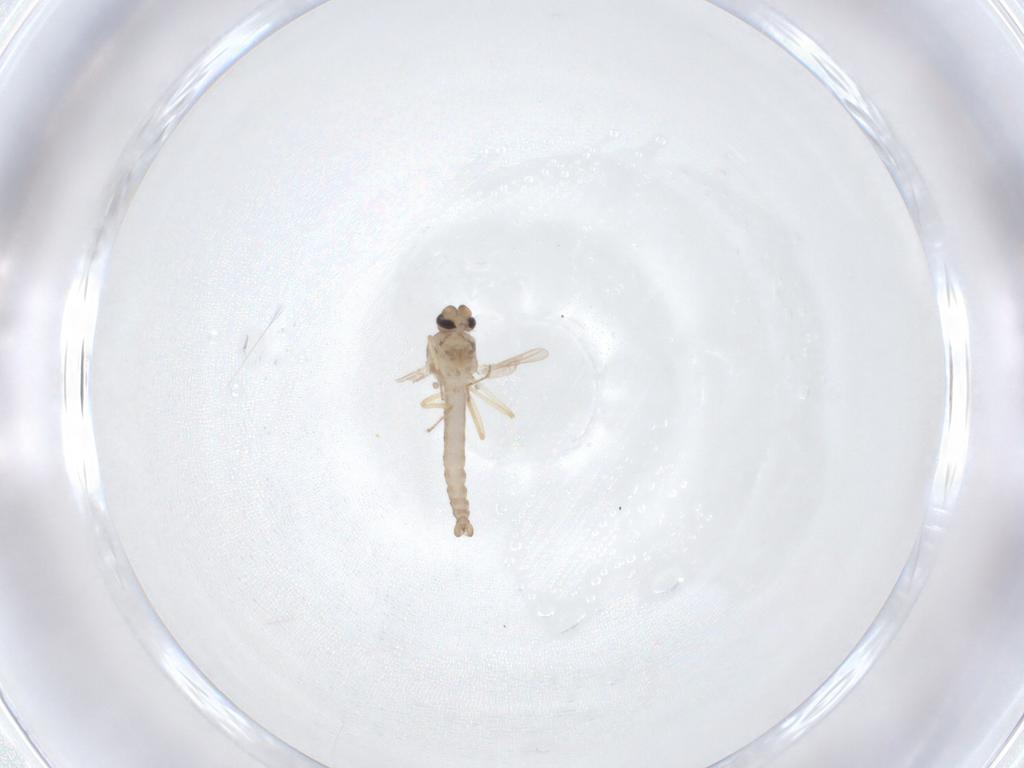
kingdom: Animalia
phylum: Arthropoda
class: Insecta
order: Diptera
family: Ceratopogonidae
